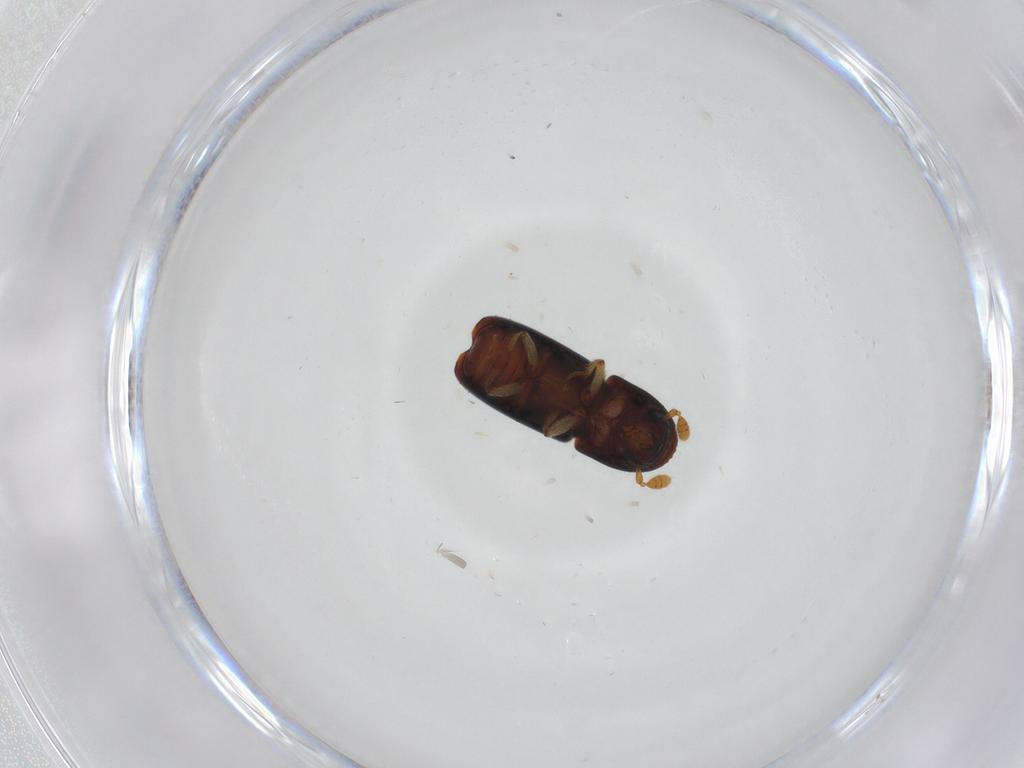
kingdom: Animalia
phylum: Arthropoda
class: Insecta
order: Coleoptera
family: Curculionidae
